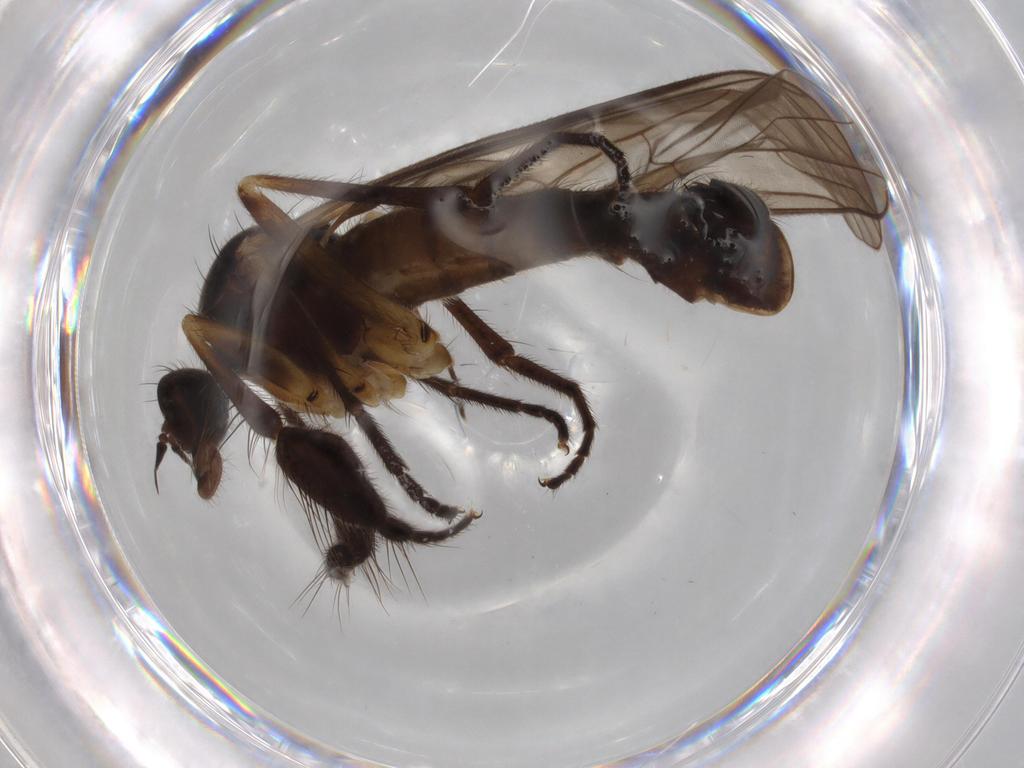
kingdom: Animalia
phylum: Arthropoda
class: Insecta
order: Diptera
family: Empididae
